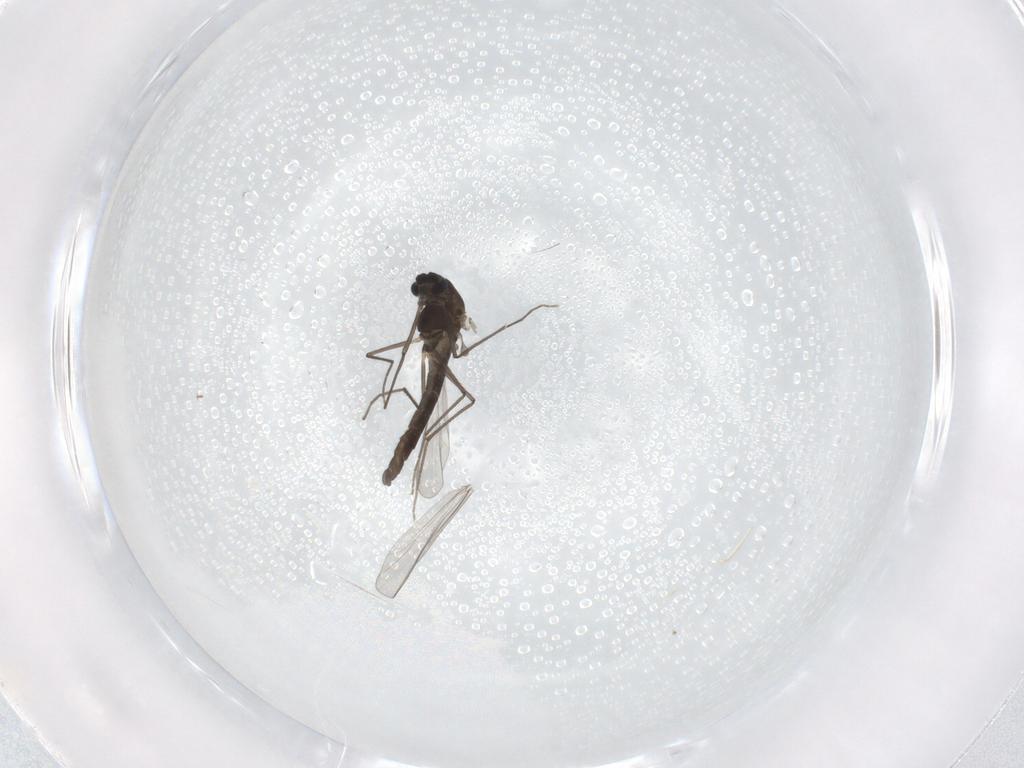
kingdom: Animalia
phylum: Arthropoda
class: Insecta
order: Diptera
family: Chironomidae
